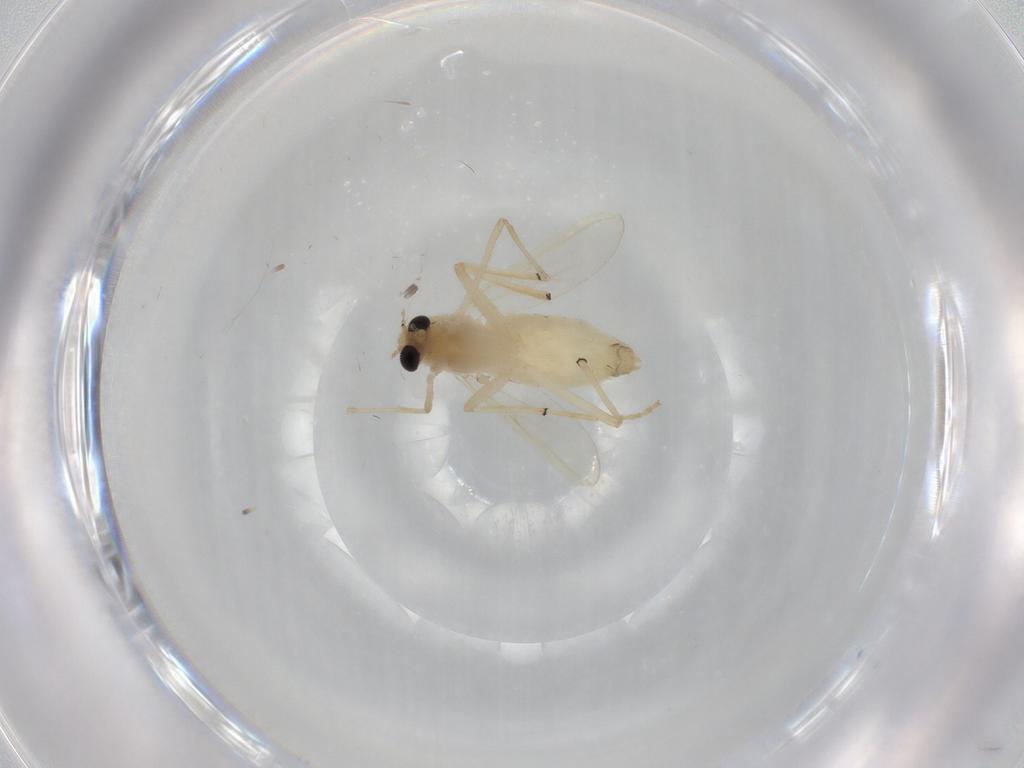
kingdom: Animalia
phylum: Arthropoda
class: Insecta
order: Diptera
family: Chironomidae
